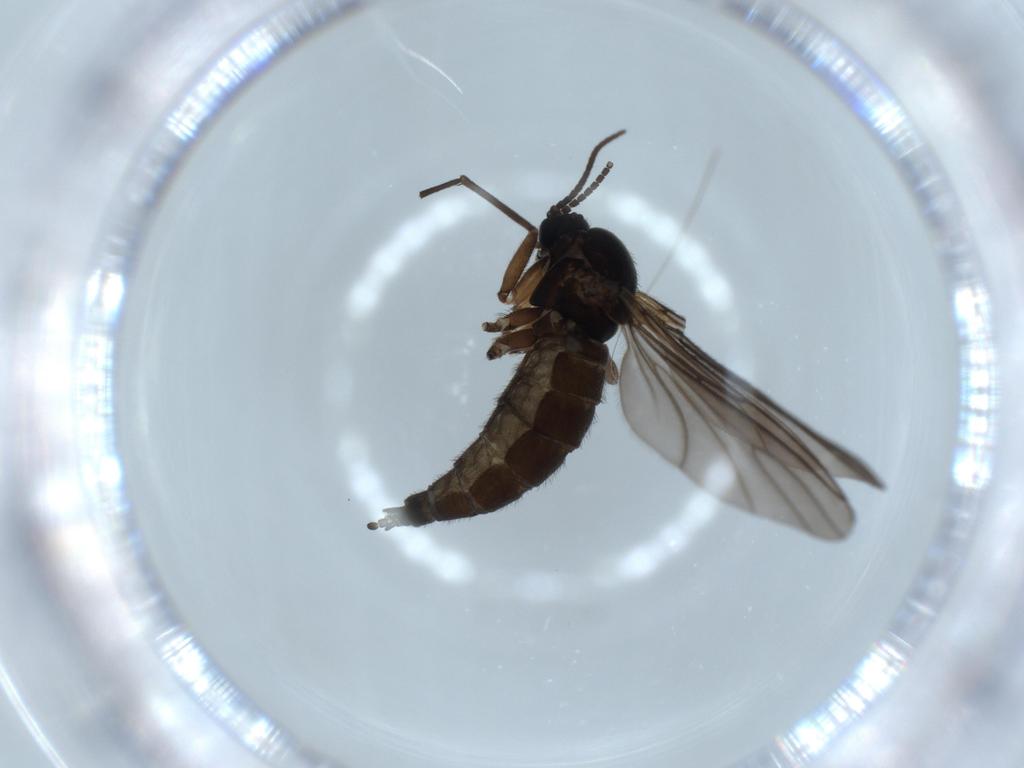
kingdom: Animalia
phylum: Arthropoda
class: Insecta
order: Diptera
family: Sciaridae
